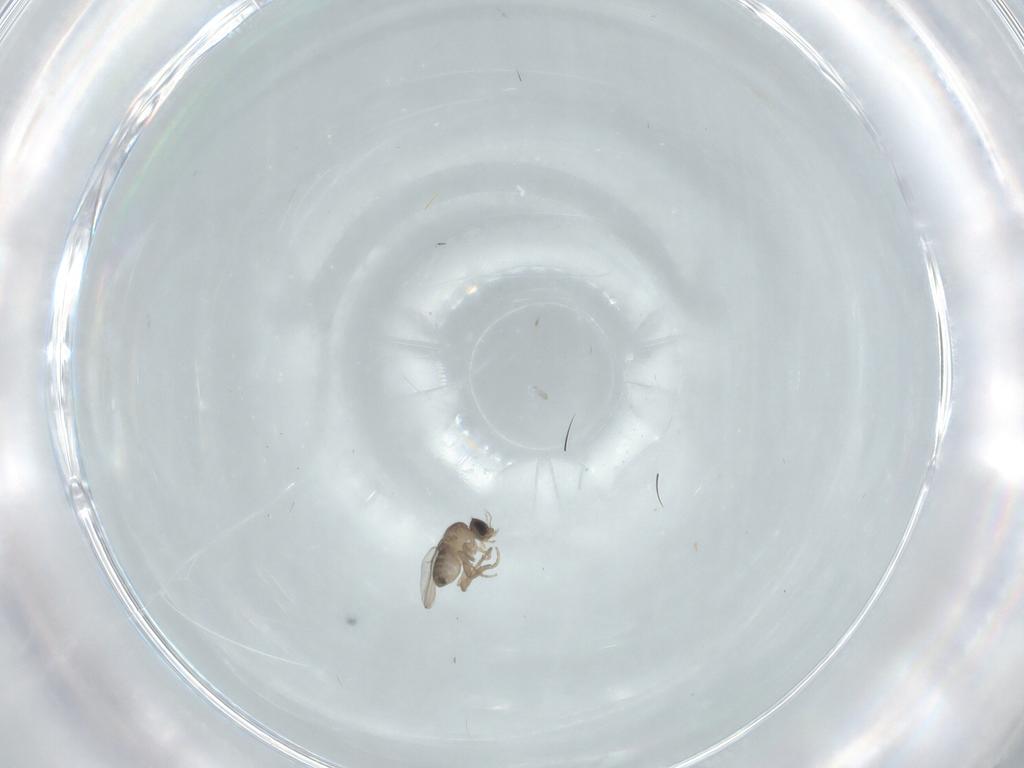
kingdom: Animalia
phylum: Arthropoda
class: Insecta
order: Diptera
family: Phoridae
